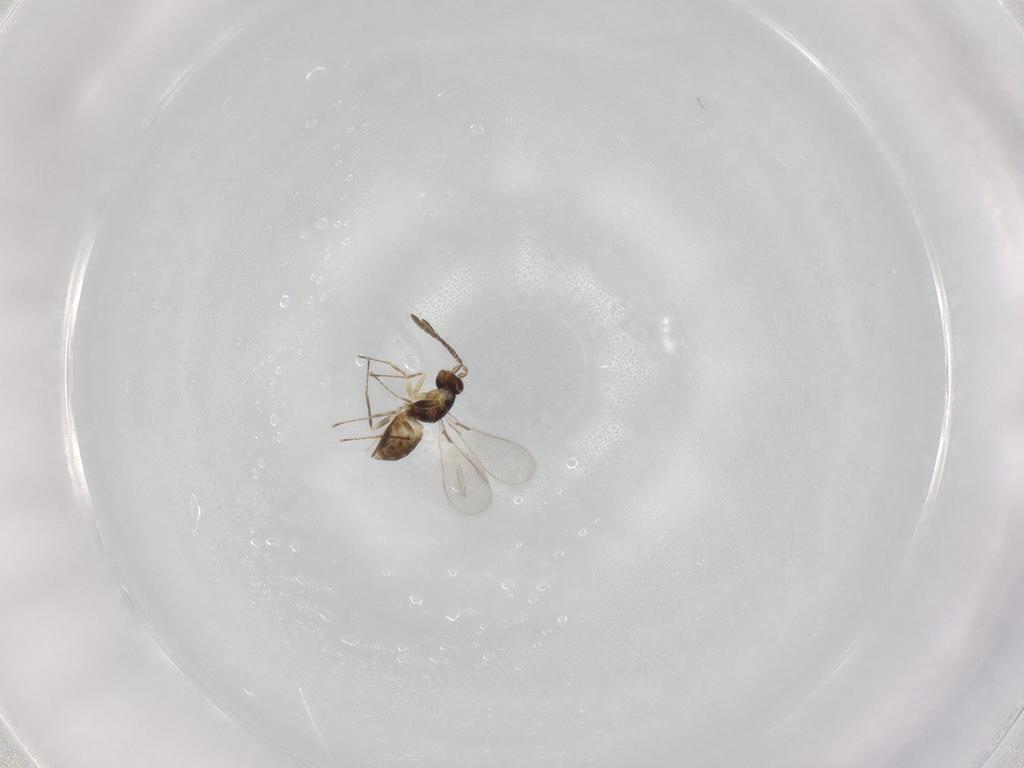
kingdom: Animalia
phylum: Arthropoda
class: Insecta
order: Hymenoptera
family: Mymaridae
